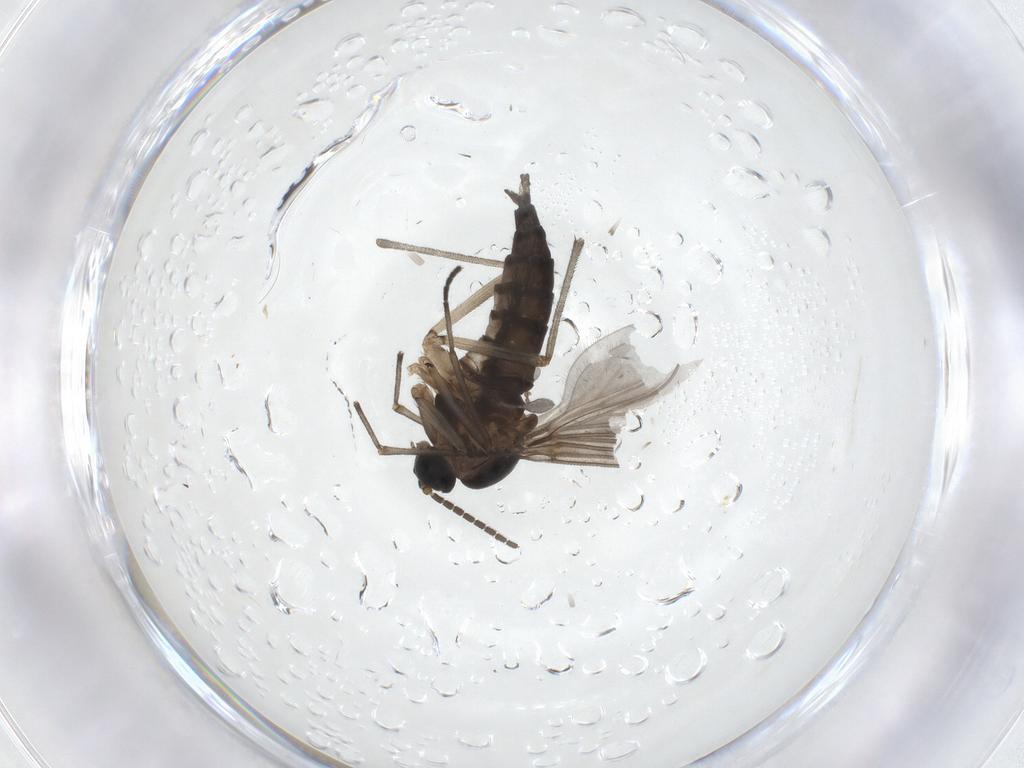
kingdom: Animalia
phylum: Arthropoda
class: Insecta
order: Diptera
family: Sciaridae
